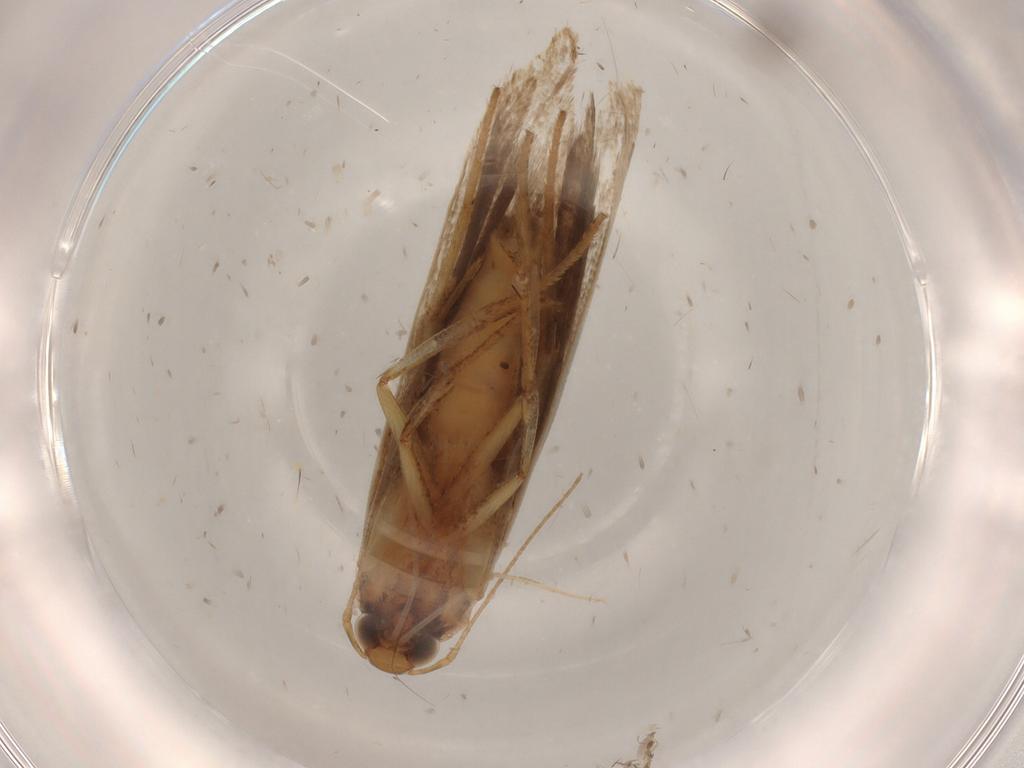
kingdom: Animalia
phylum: Arthropoda
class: Insecta
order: Lepidoptera
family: Gelechiidae
